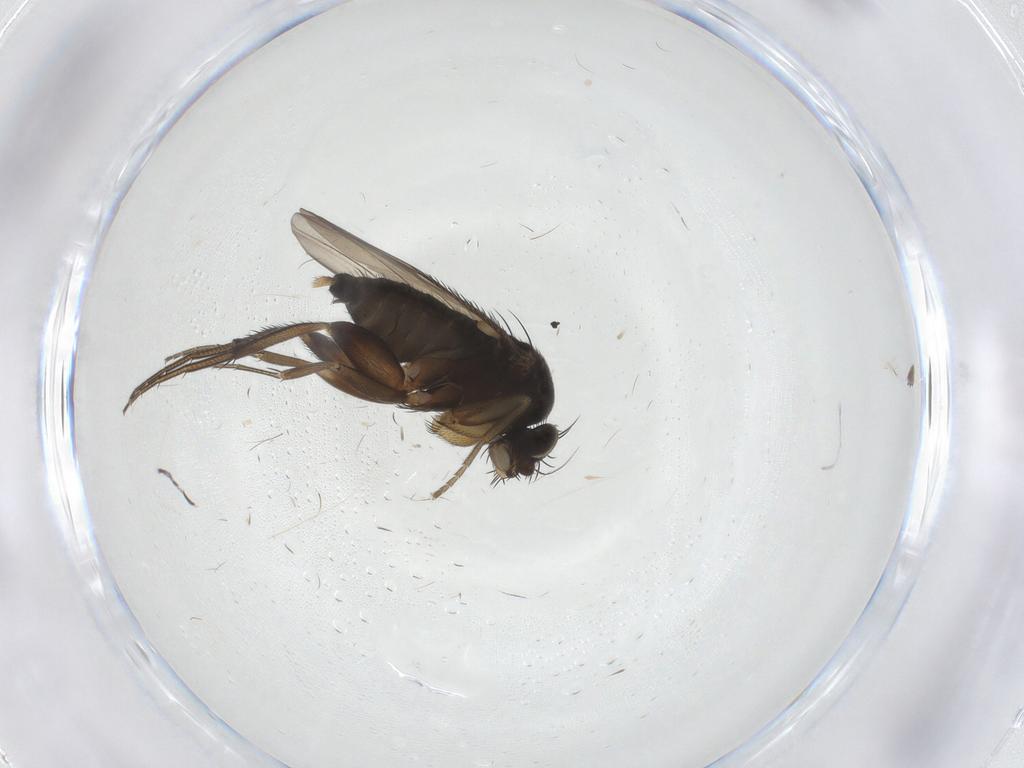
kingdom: Animalia
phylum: Arthropoda
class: Insecta
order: Diptera
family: Phoridae
